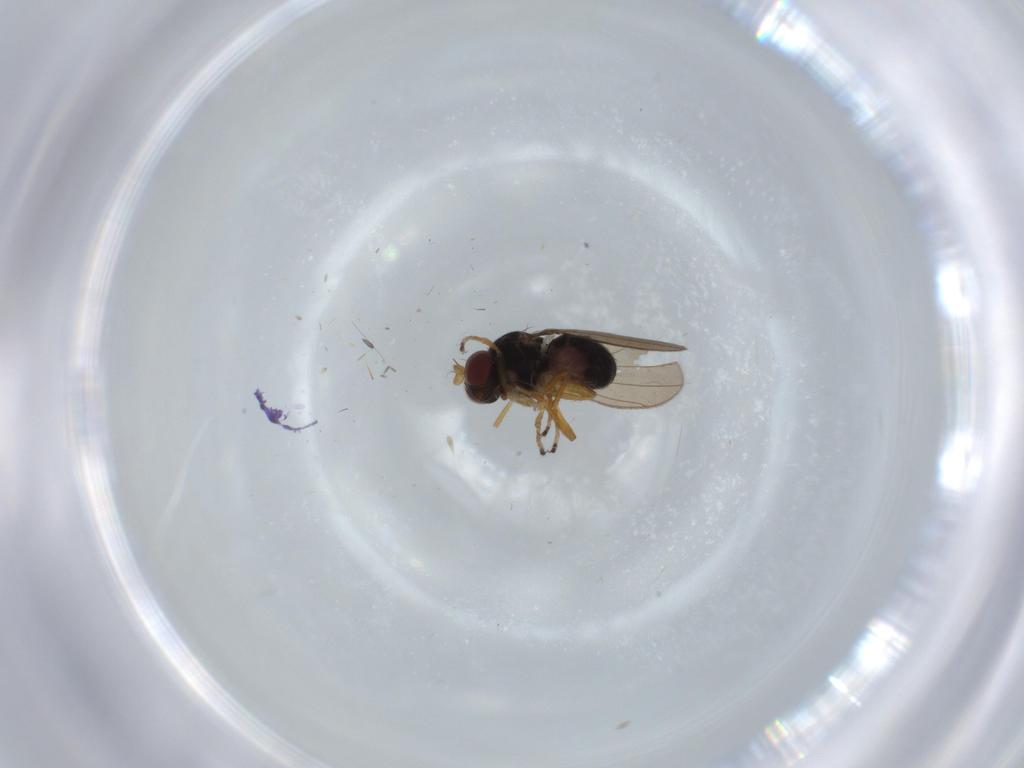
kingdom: Animalia
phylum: Arthropoda
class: Insecta
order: Diptera
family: Ephydridae
